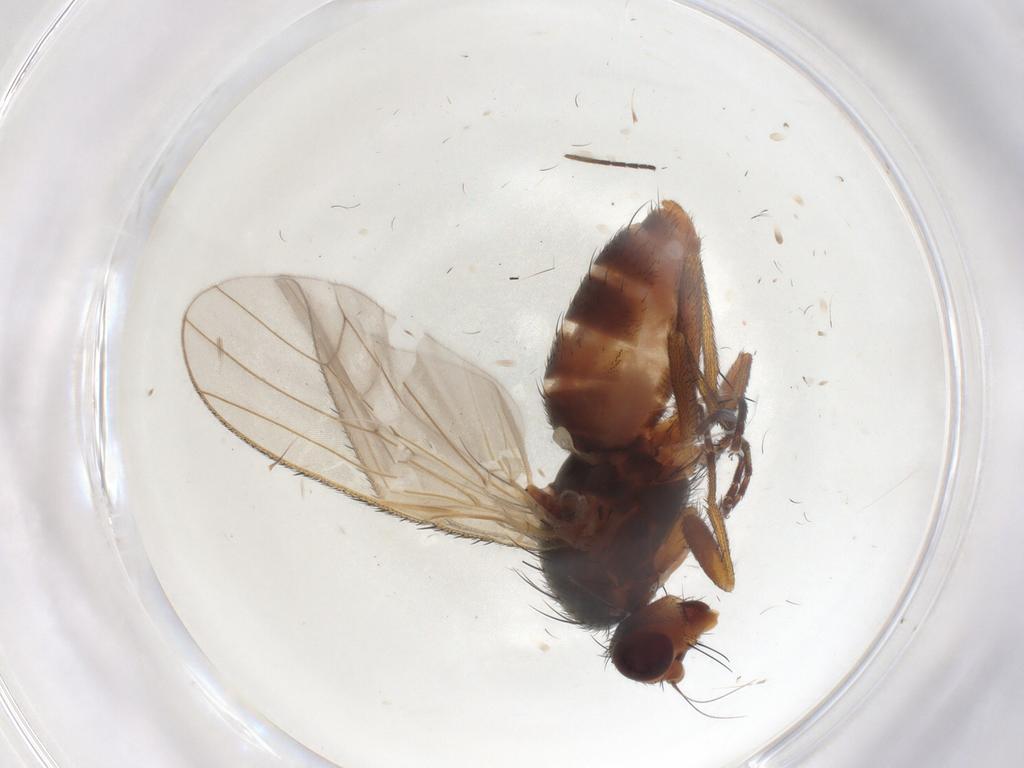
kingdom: Animalia
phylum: Arthropoda
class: Insecta
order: Diptera
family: Heleomyzidae
